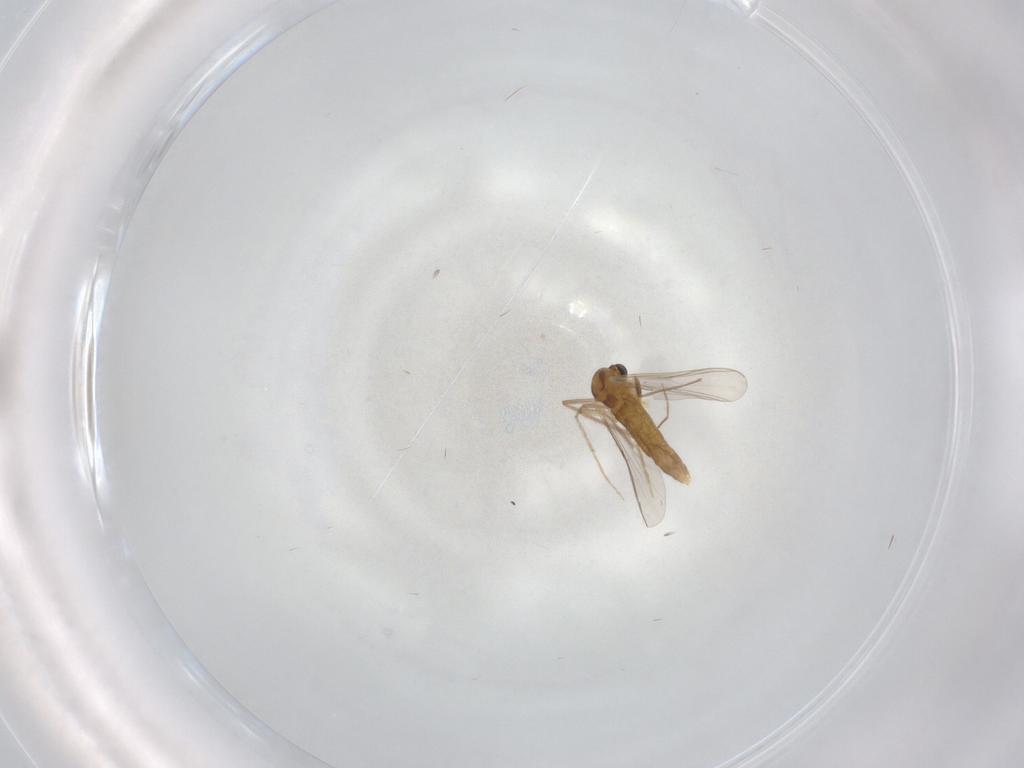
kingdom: Animalia
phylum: Arthropoda
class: Insecta
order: Diptera
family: Chloropidae
